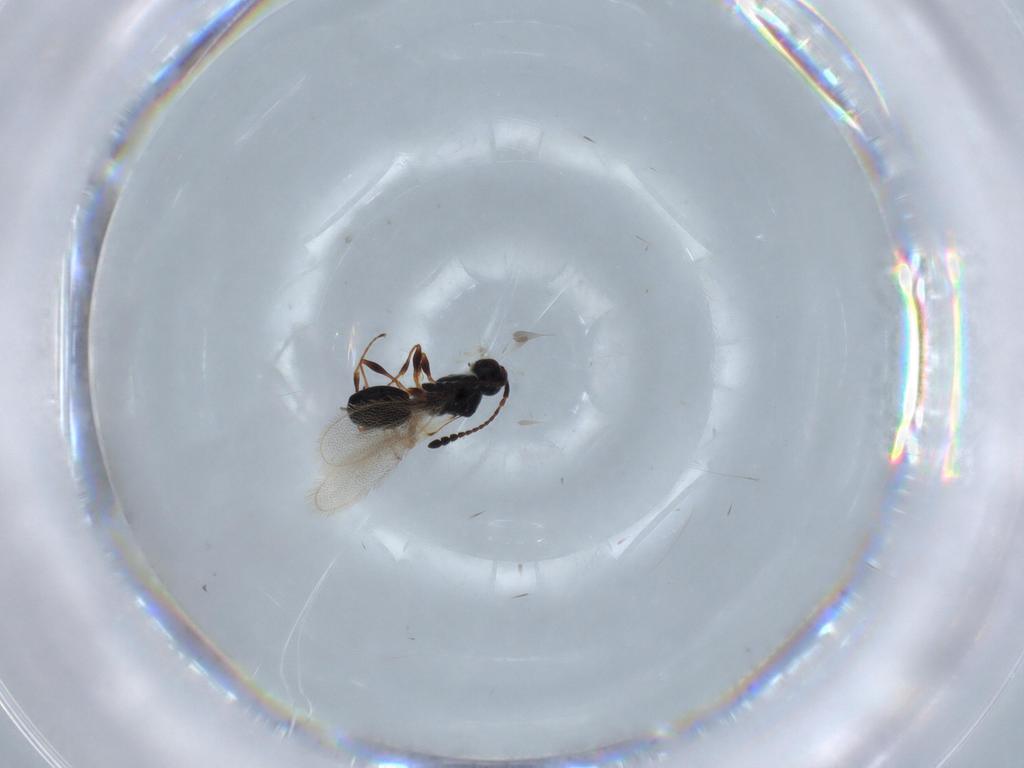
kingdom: Animalia
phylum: Arthropoda
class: Insecta
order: Hymenoptera
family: Formicidae
